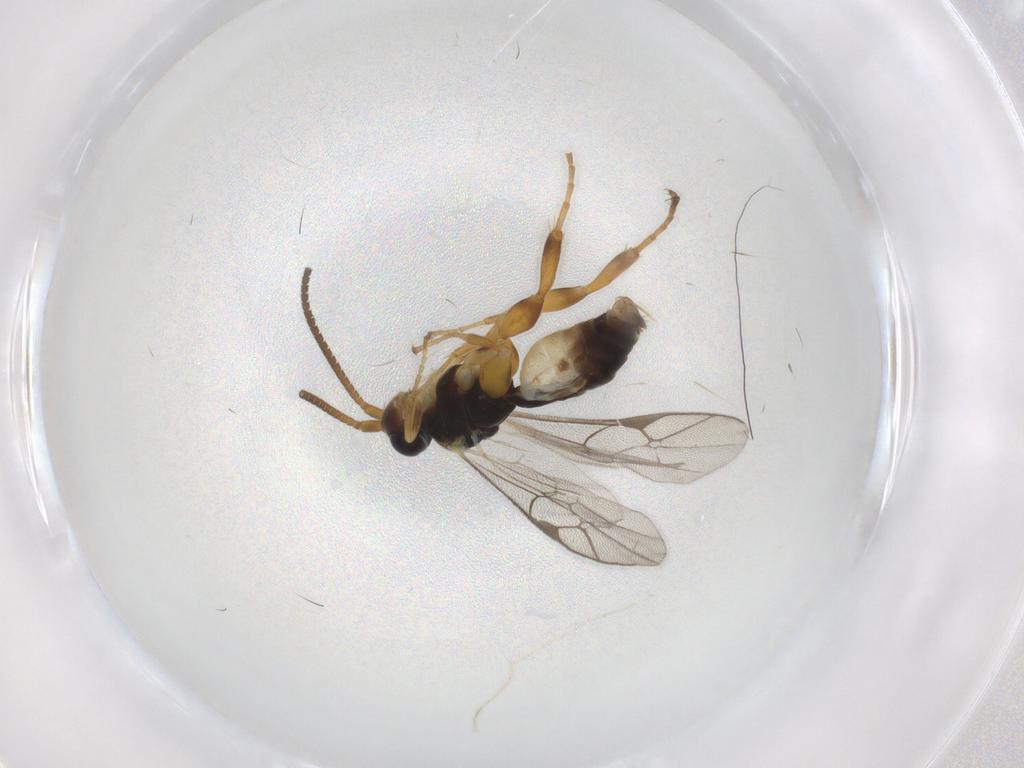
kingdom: Animalia
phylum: Arthropoda
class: Insecta
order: Hymenoptera
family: Ichneumonidae
